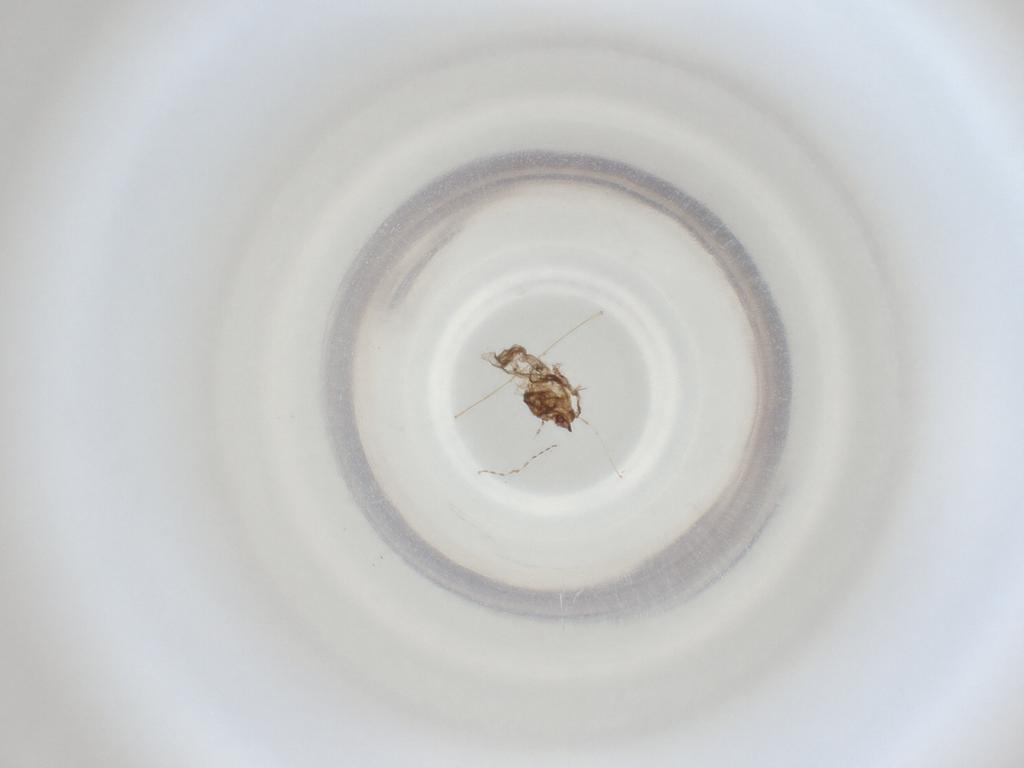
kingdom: Animalia
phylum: Arthropoda
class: Insecta
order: Diptera
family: Cecidomyiidae
